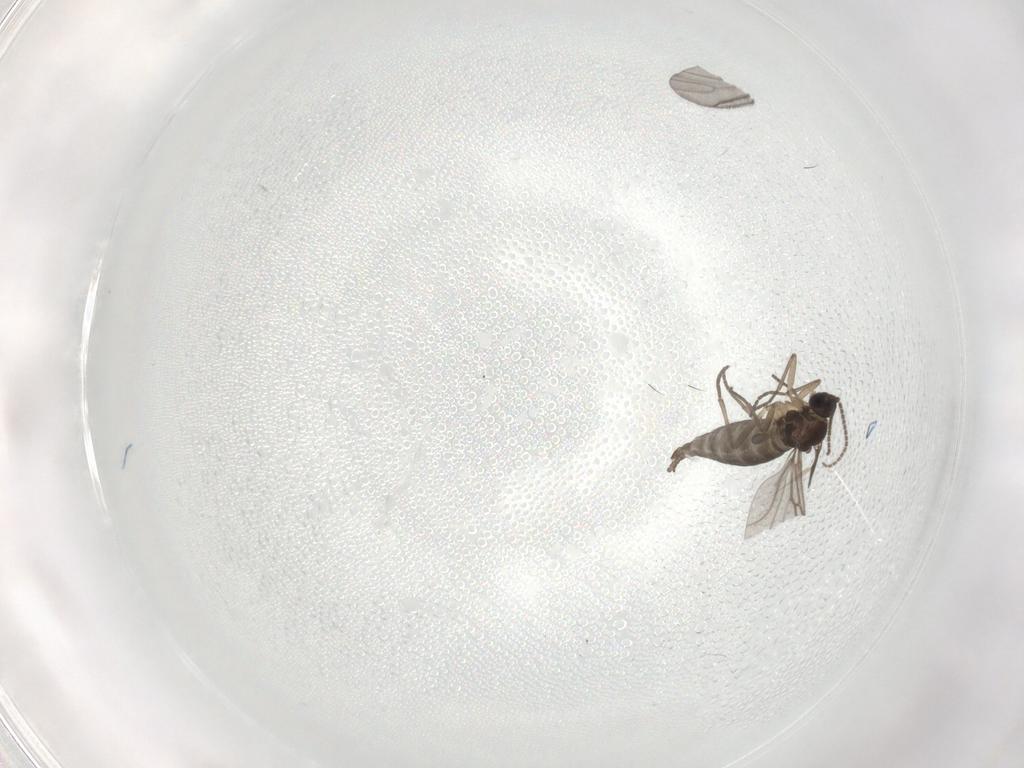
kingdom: Animalia
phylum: Arthropoda
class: Insecta
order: Diptera
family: Sciaridae
